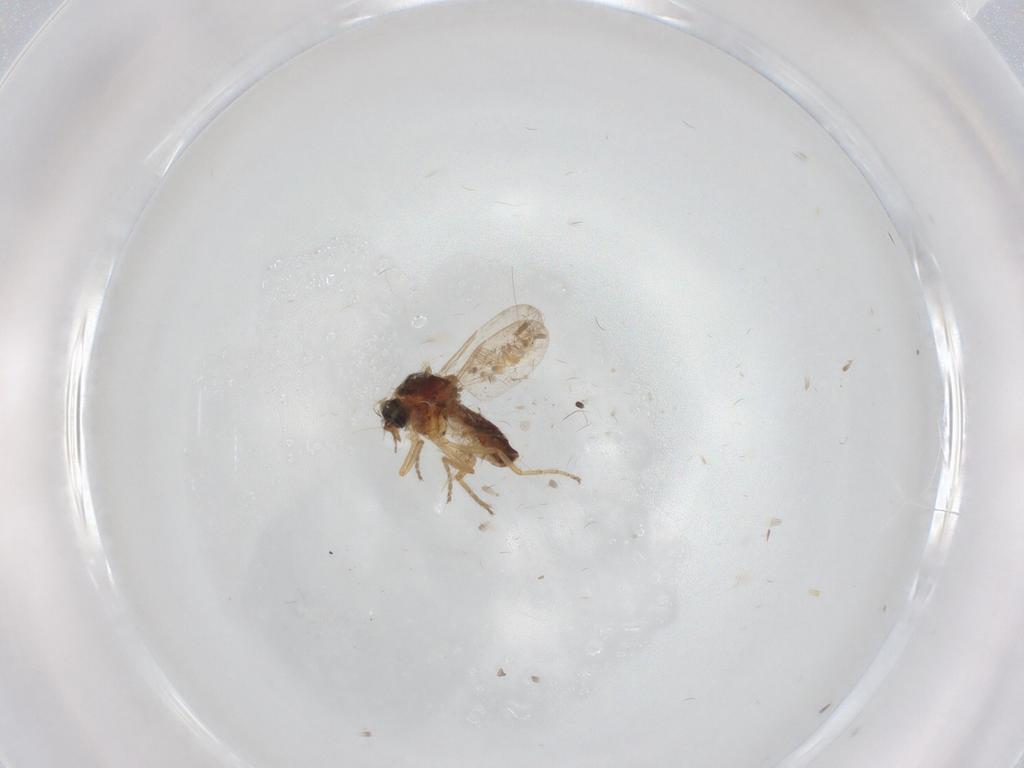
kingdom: Animalia
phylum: Arthropoda
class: Insecta
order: Diptera
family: Ceratopogonidae
